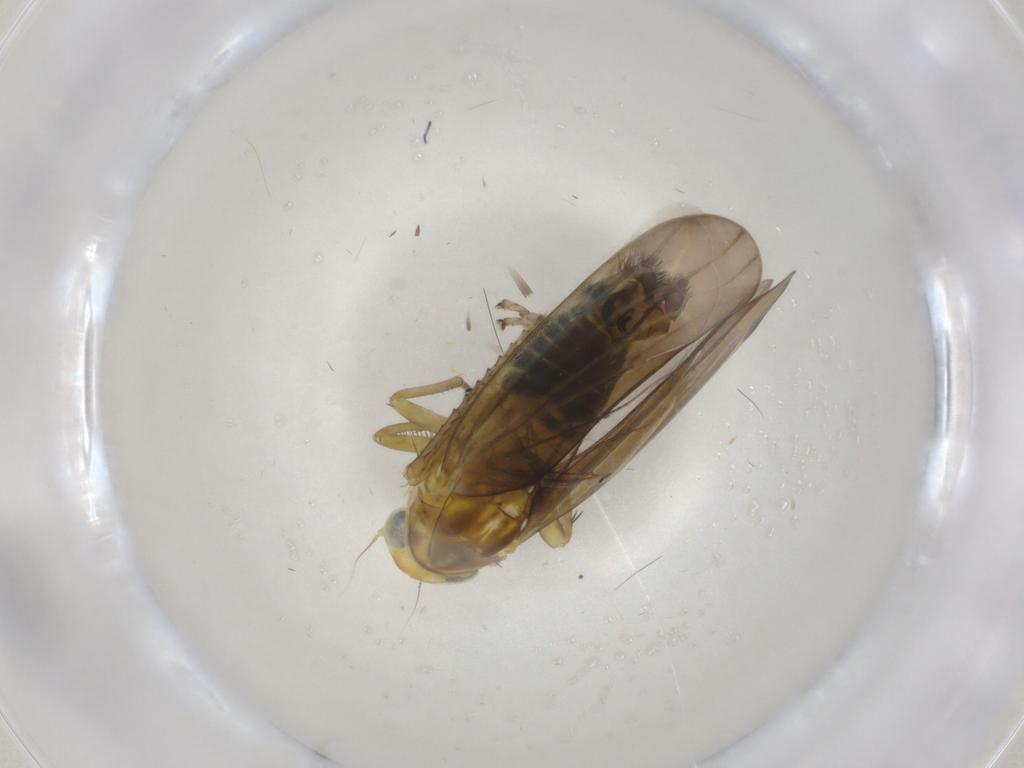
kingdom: Animalia
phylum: Arthropoda
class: Insecta
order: Hemiptera
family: Cicadellidae
